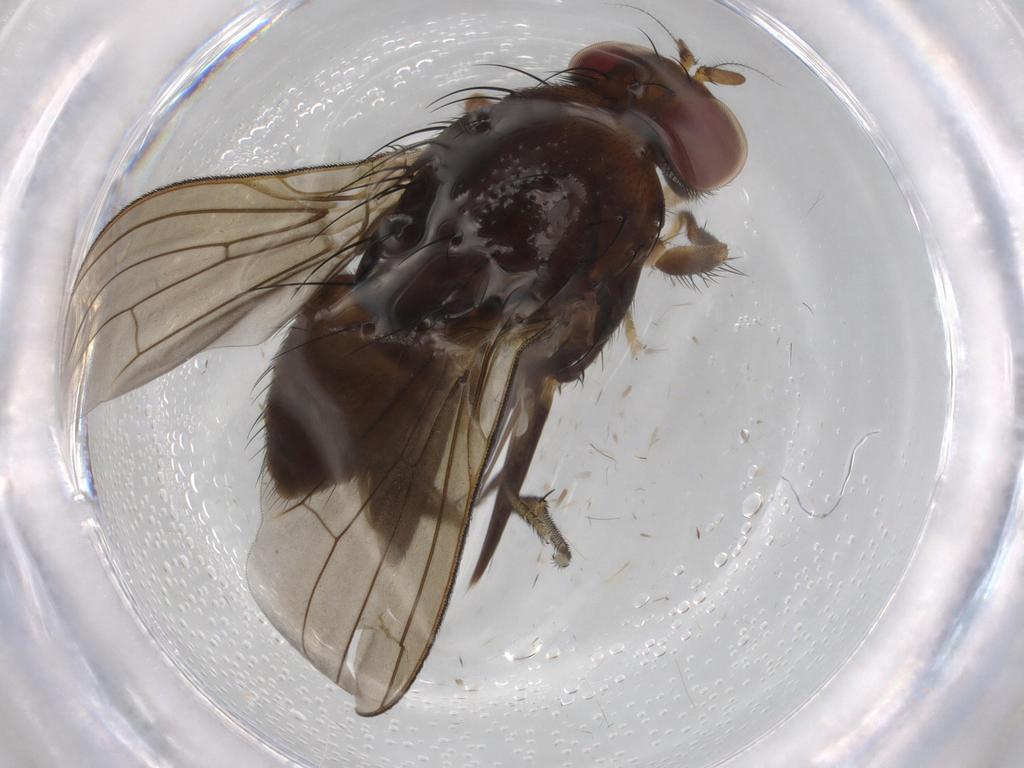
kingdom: Animalia
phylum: Arthropoda
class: Insecta
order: Diptera
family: Cecidomyiidae
